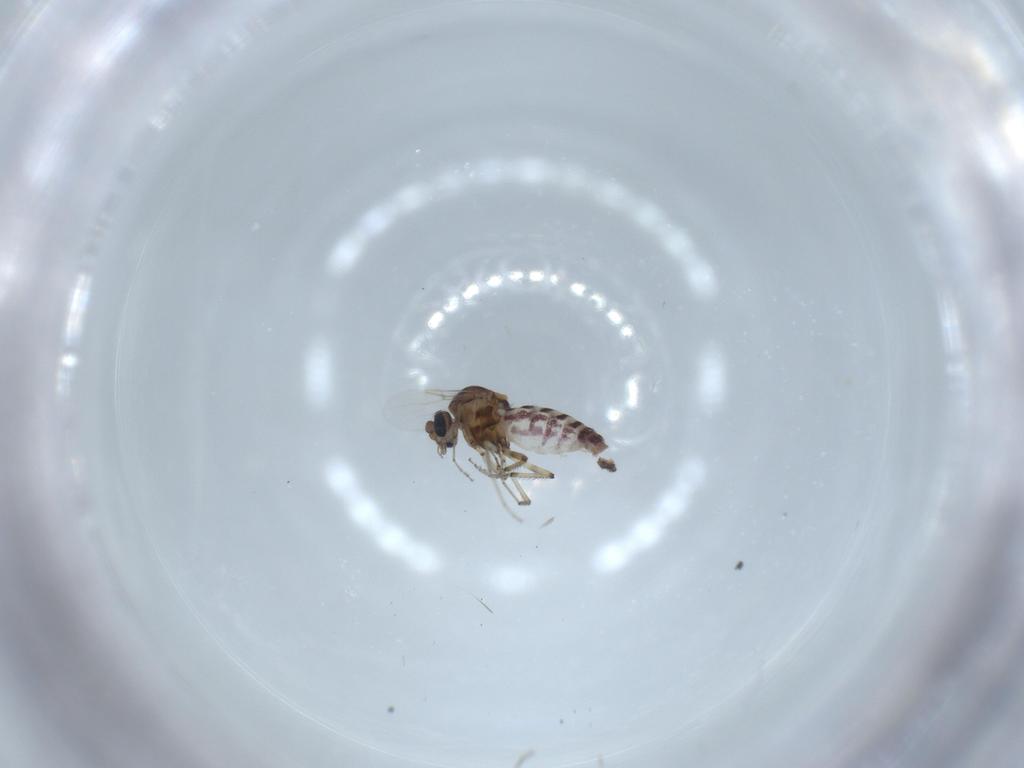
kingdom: Animalia
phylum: Arthropoda
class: Insecta
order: Diptera
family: Ceratopogonidae
